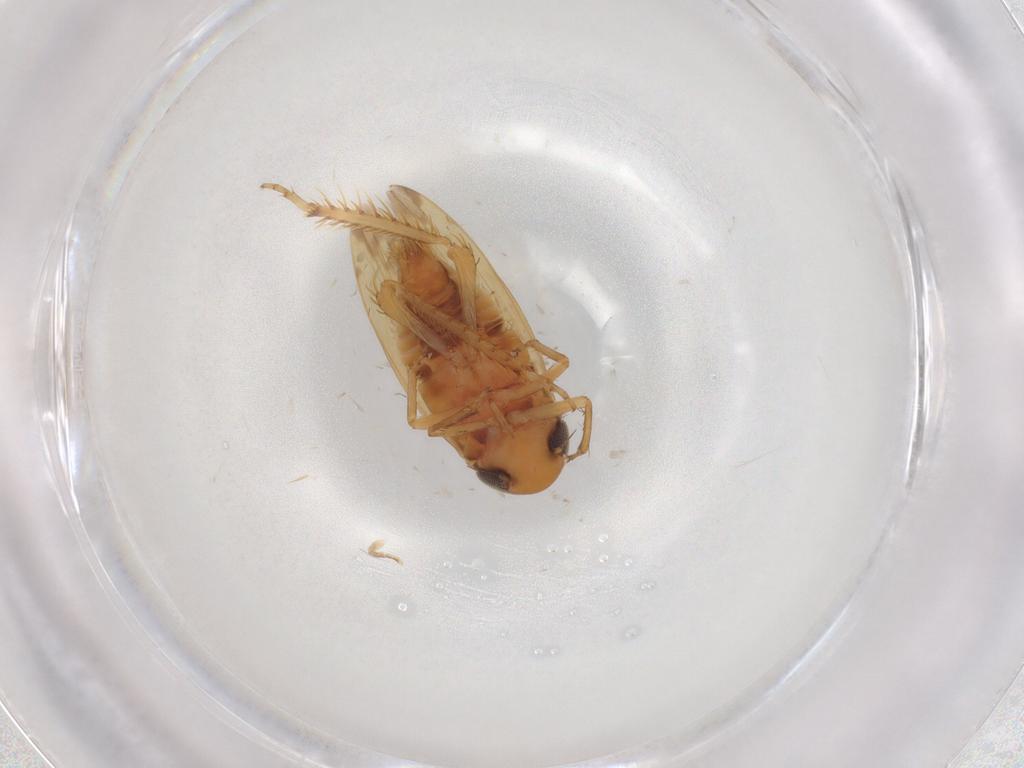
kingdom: Animalia
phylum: Arthropoda
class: Insecta
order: Hemiptera
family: Cicadellidae
